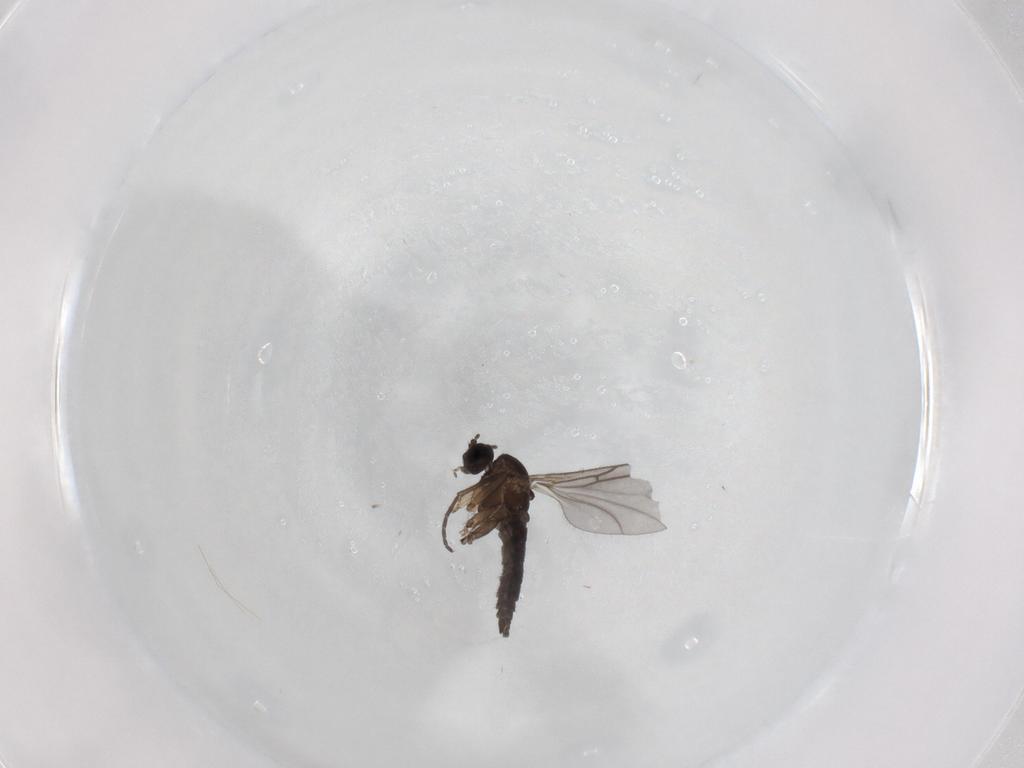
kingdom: Animalia
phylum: Arthropoda
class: Insecta
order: Diptera
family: Sciaridae
